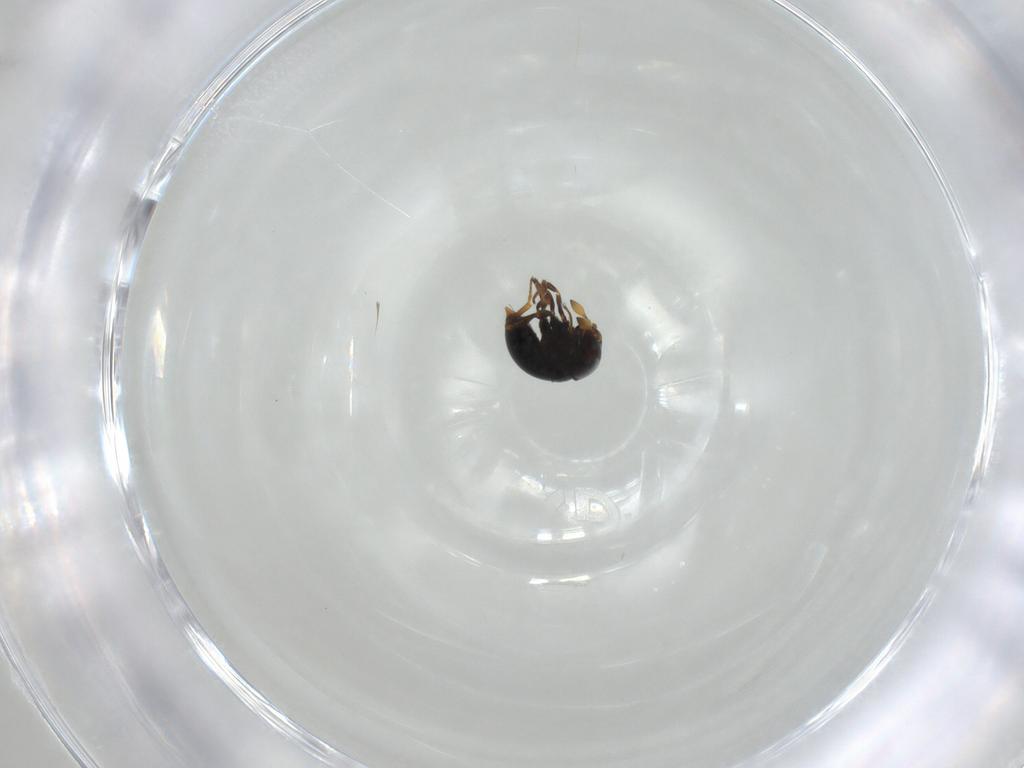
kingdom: Animalia
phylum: Arthropoda
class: Insecta
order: Hymenoptera
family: Scelionidae
